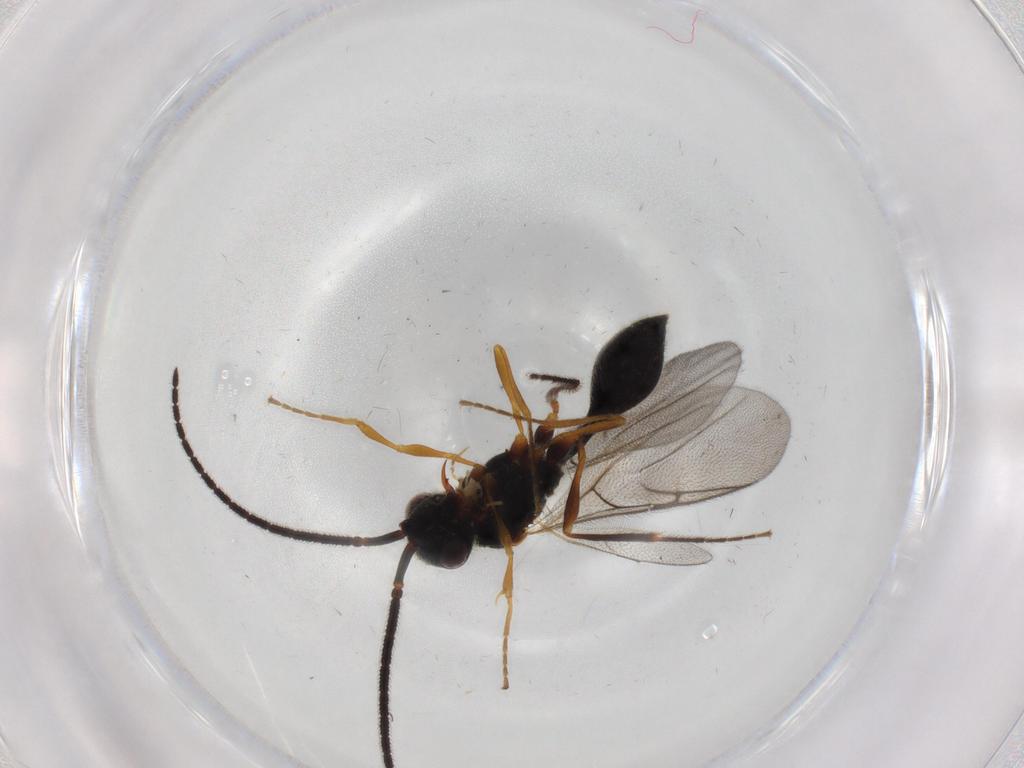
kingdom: Animalia
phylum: Arthropoda
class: Insecta
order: Hymenoptera
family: Diapriidae
